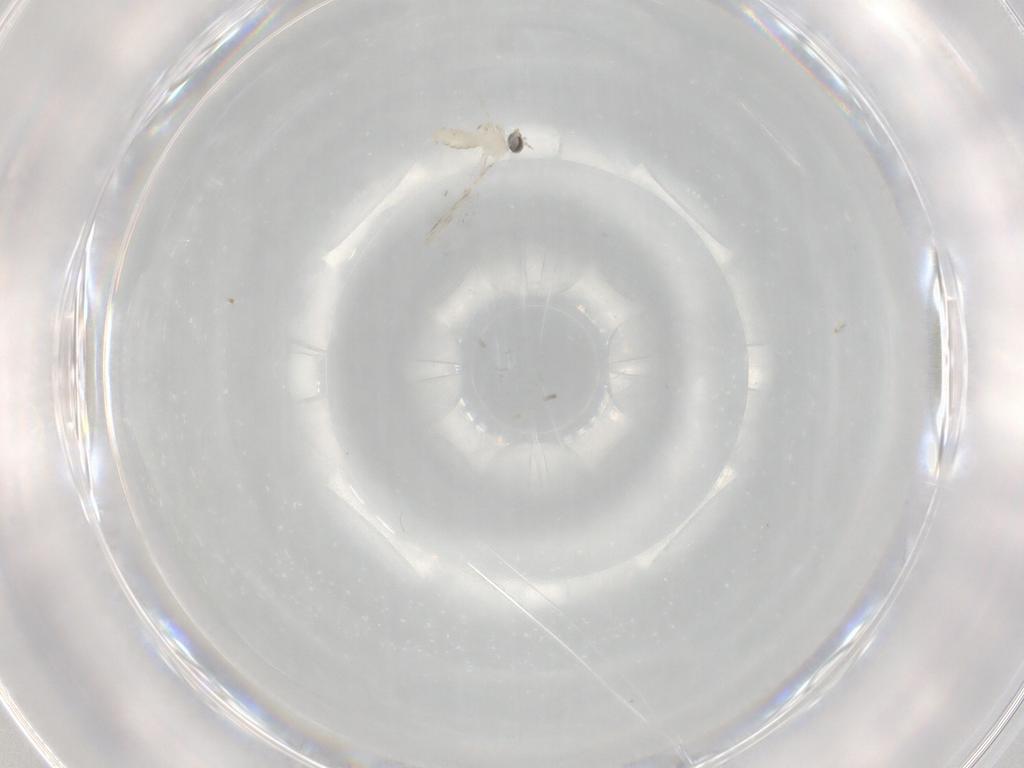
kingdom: Animalia
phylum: Arthropoda
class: Insecta
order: Diptera
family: Cecidomyiidae
